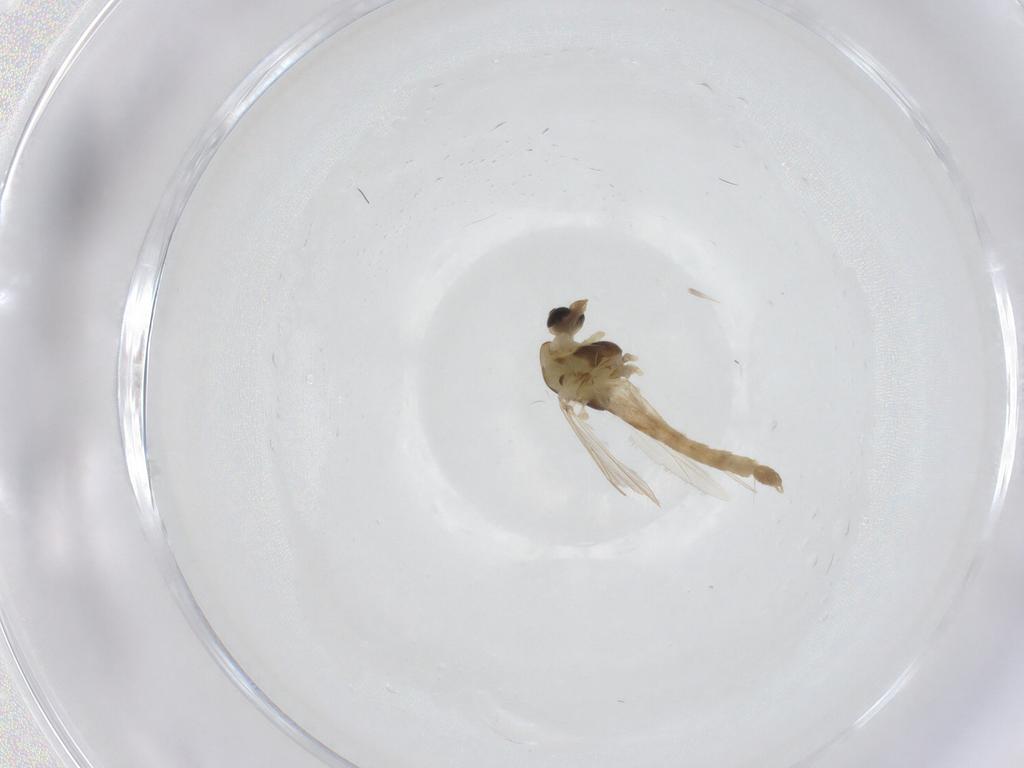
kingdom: Animalia
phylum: Arthropoda
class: Insecta
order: Diptera
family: Chironomidae
